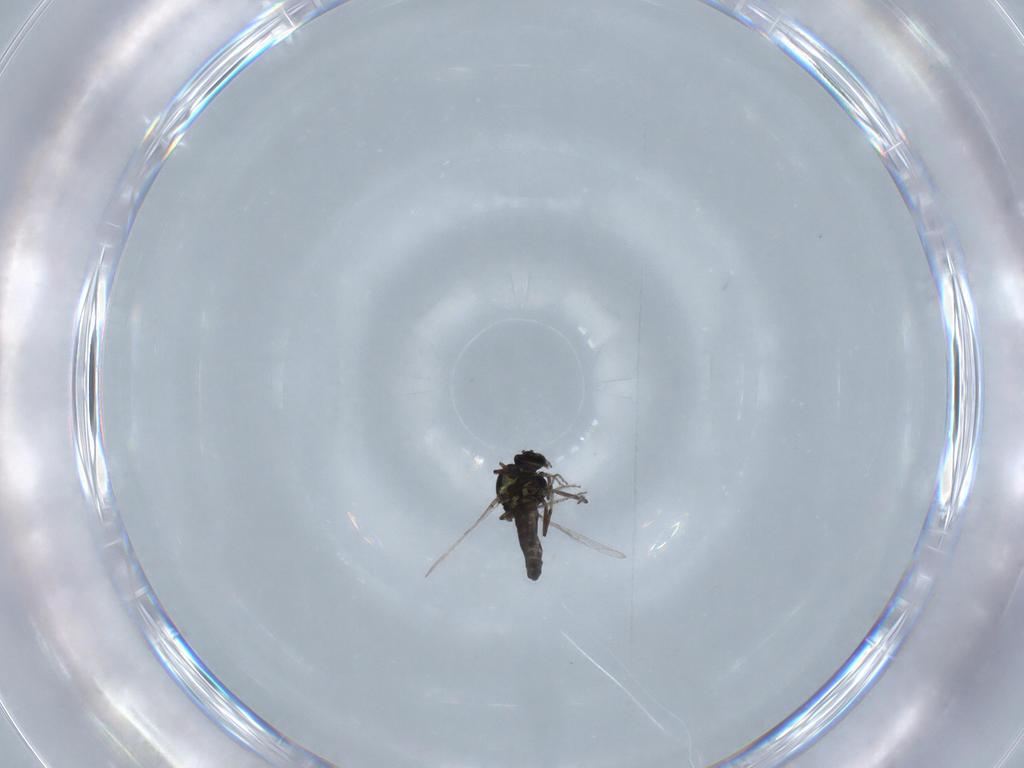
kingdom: Animalia
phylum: Arthropoda
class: Insecta
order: Diptera
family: Ceratopogonidae
